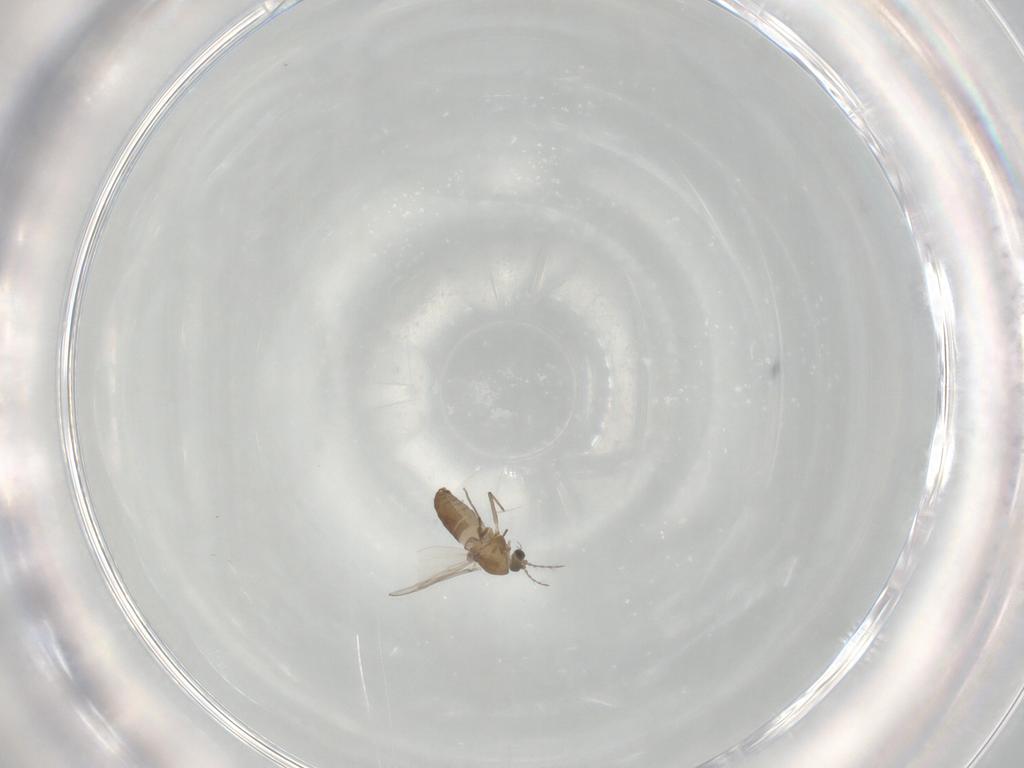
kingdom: Animalia
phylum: Arthropoda
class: Insecta
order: Diptera
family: Chironomidae
